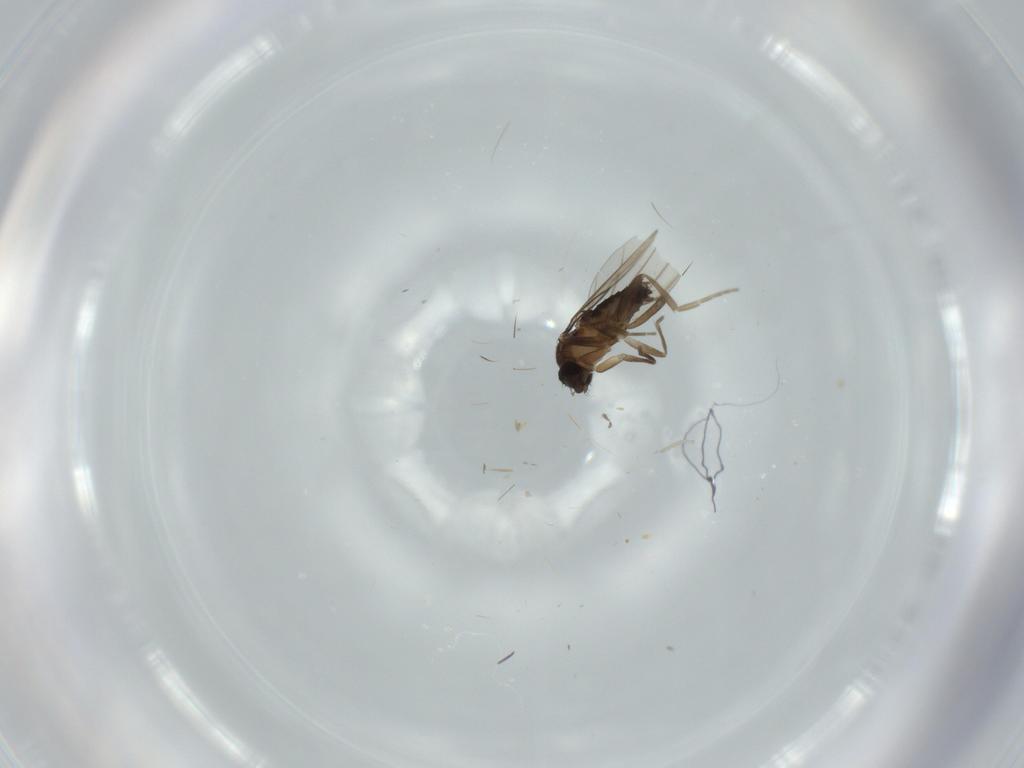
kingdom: Animalia
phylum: Arthropoda
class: Insecta
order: Diptera
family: Phoridae
